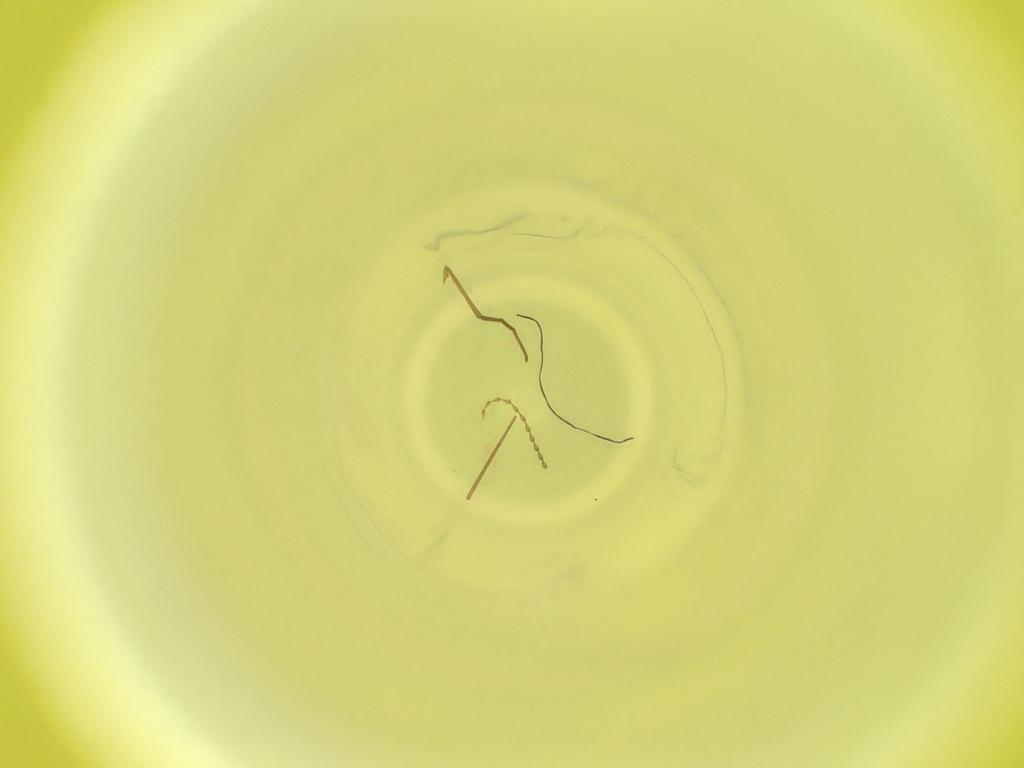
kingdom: Animalia
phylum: Arthropoda
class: Insecta
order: Diptera
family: Cecidomyiidae
